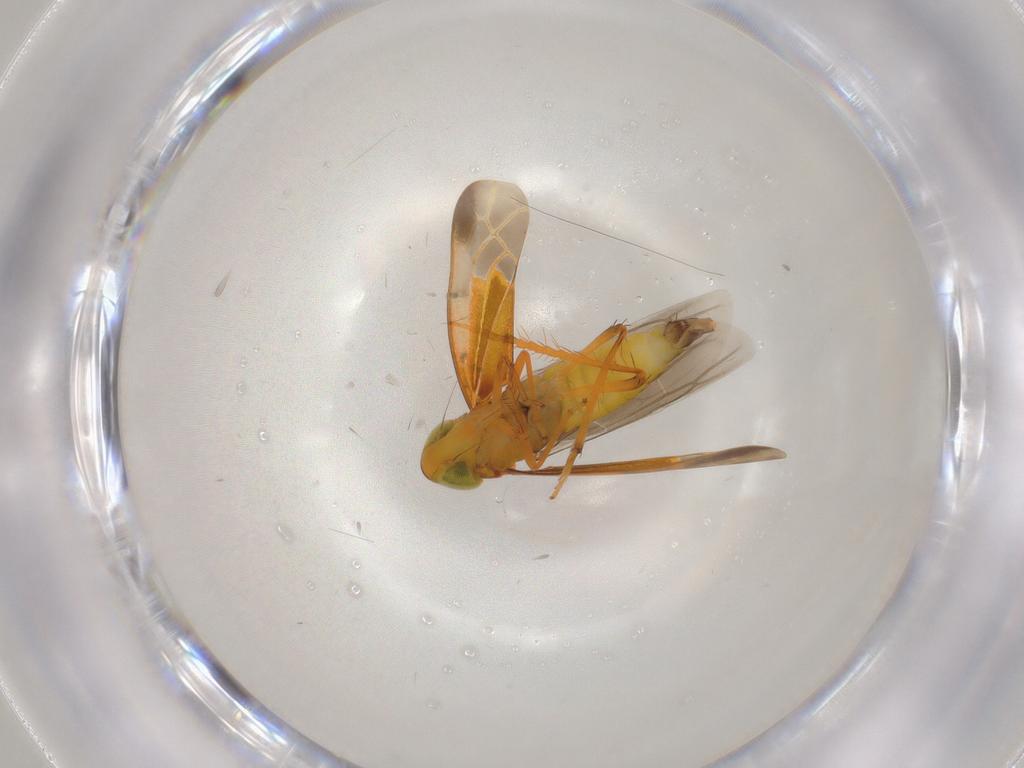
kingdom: Animalia
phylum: Arthropoda
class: Insecta
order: Hemiptera
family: Cicadellidae
